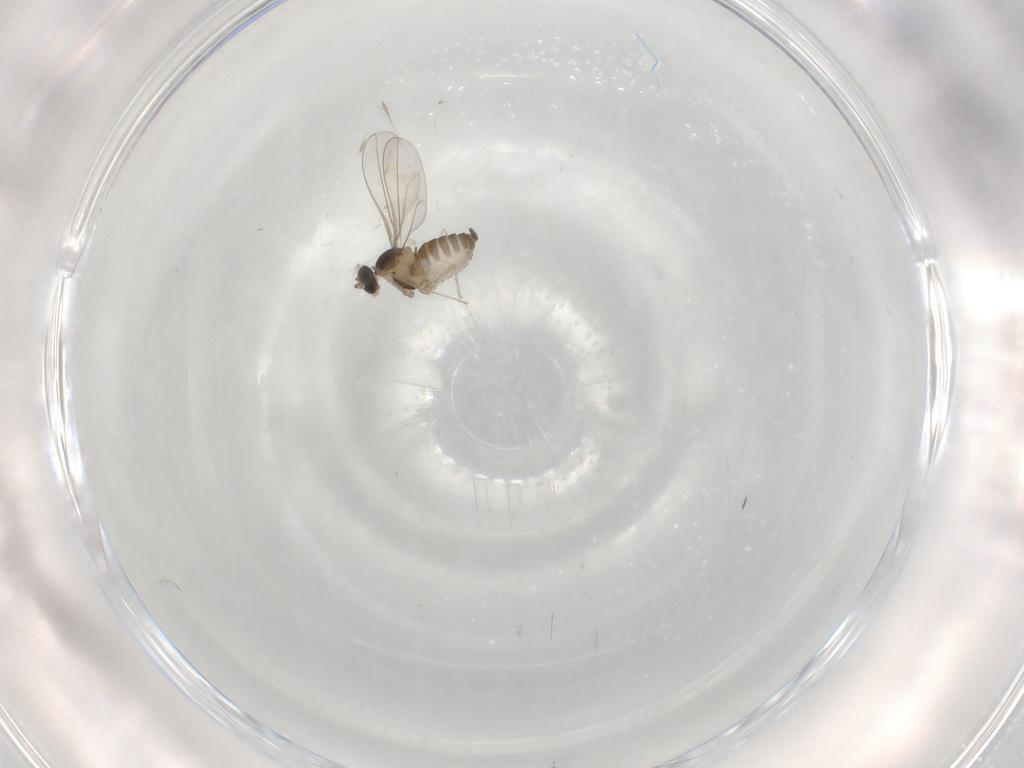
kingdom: Animalia
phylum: Arthropoda
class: Insecta
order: Diptera
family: Cecidomyiidae
